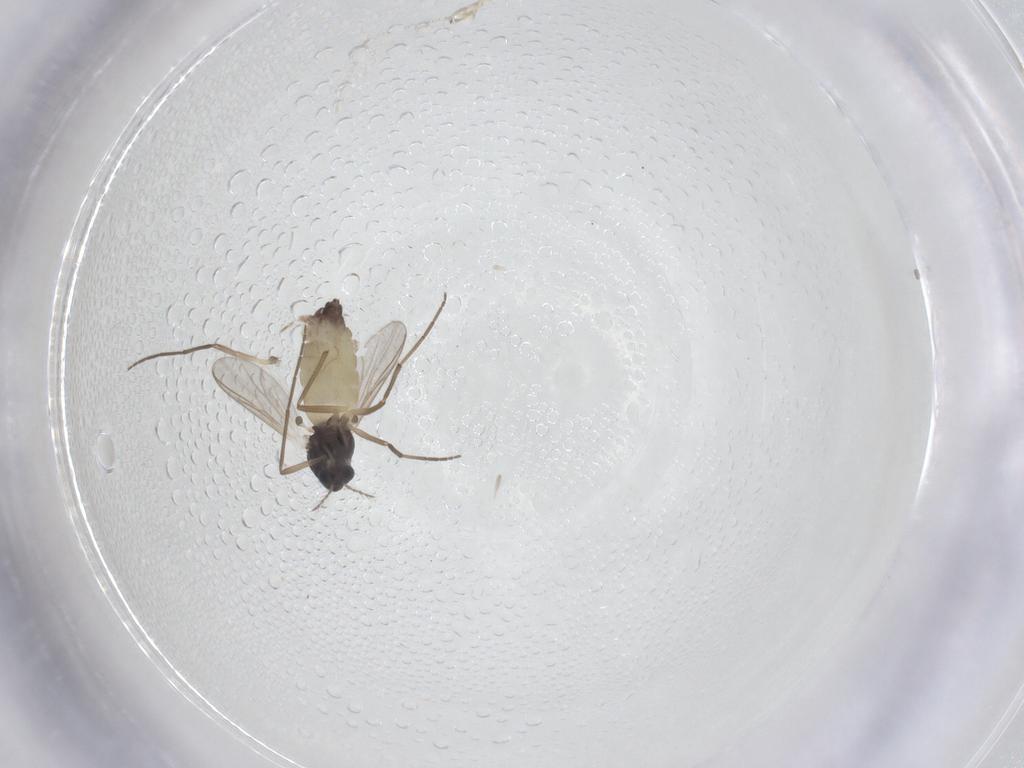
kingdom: Animalia
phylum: Arthropoda
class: Insecta
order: Diptera
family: Chironomidae
